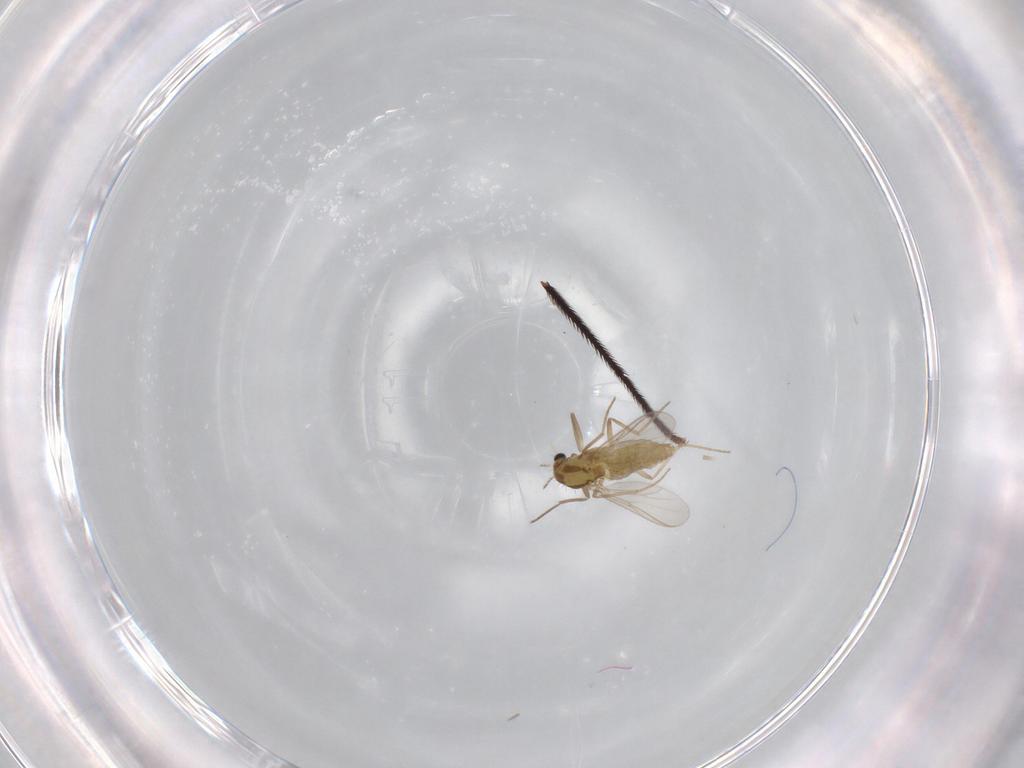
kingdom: Animalia
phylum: Arthropoda
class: Insecta
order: Diptera
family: Chironomidae
